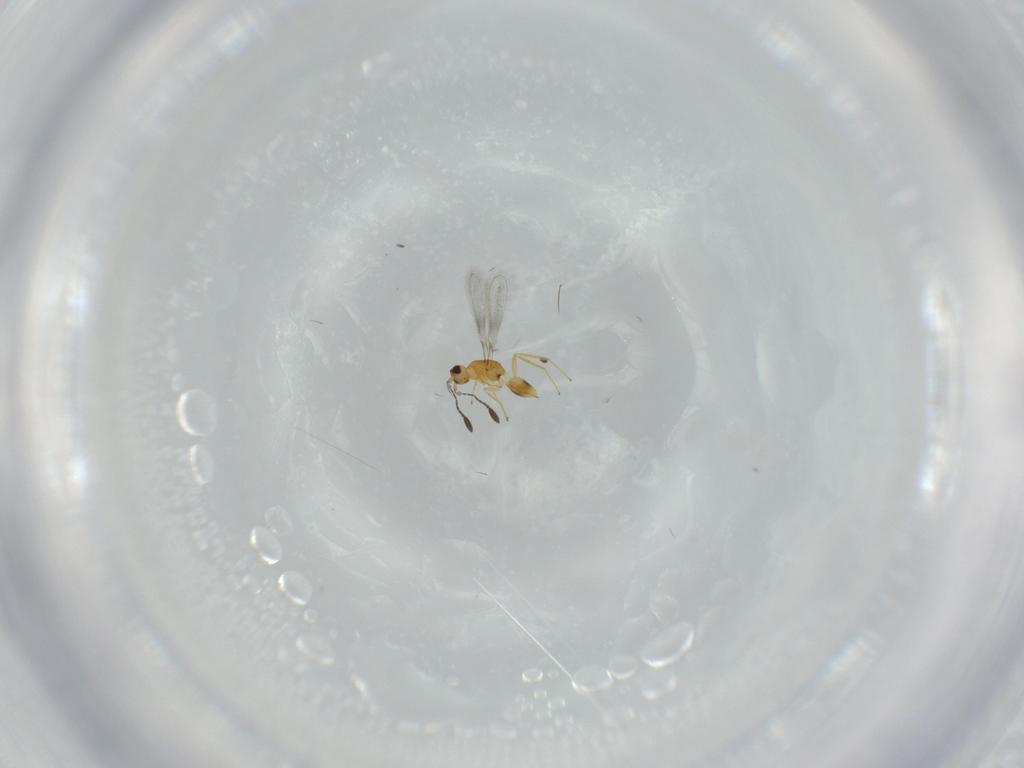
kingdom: Animalia
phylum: Arthropoda
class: Insecta
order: Hymenoptera
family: Mymaridae
